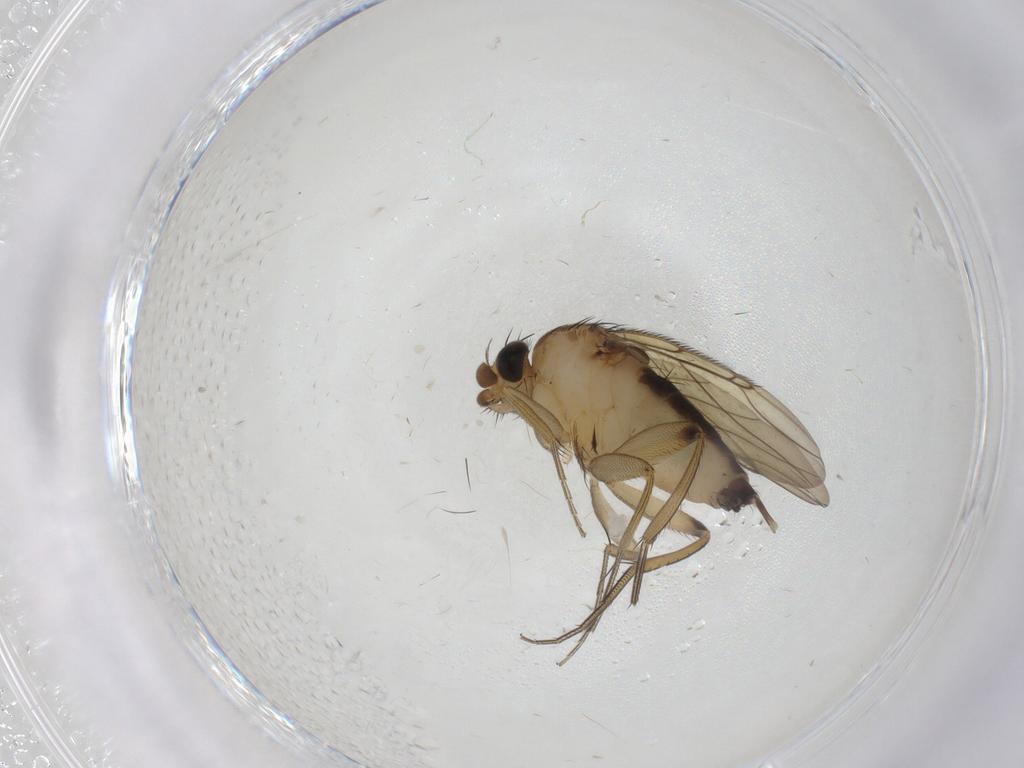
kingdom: Animalia
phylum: Arthropoda
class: Insecta
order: Diptera
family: Phoridae
